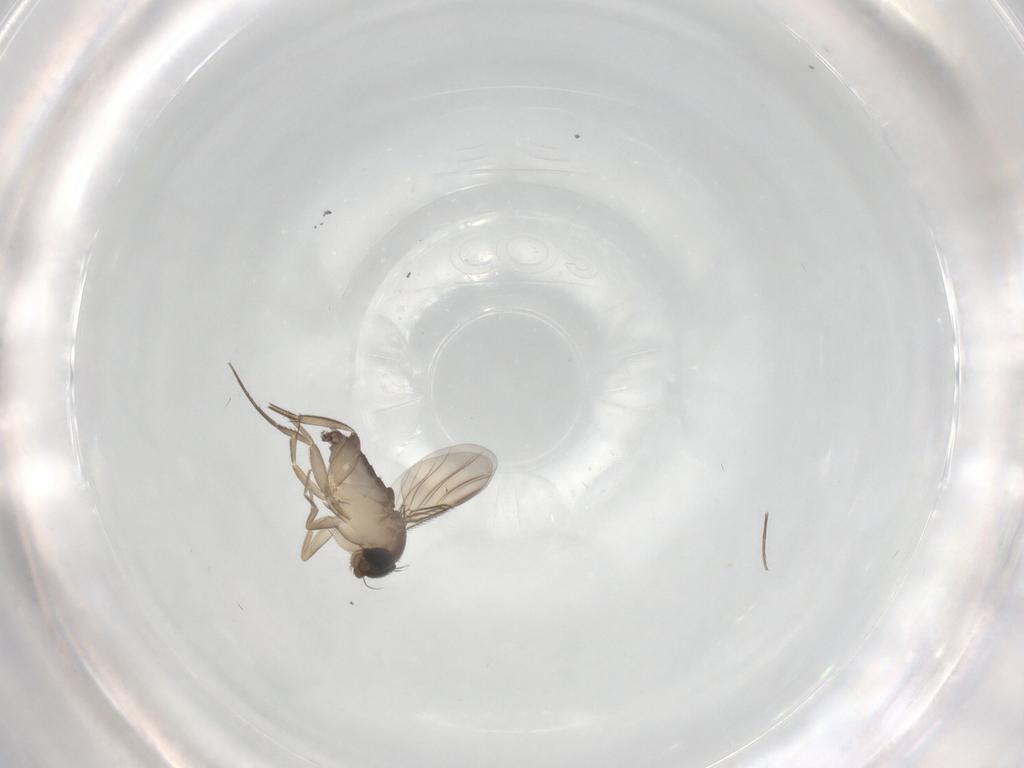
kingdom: Animalia
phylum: Arthropoda
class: Insecta
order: Diptera
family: Phoridae
